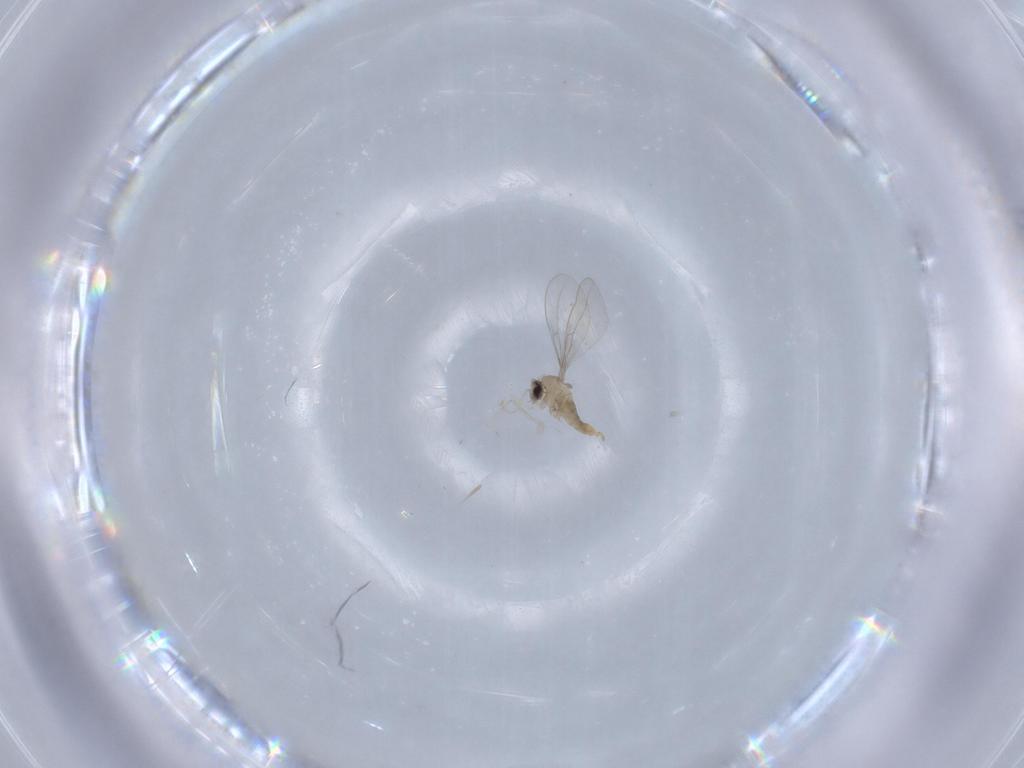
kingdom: Animalia
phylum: Arthropoda
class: Insecta
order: Diptera
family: Cecidomyiidae
